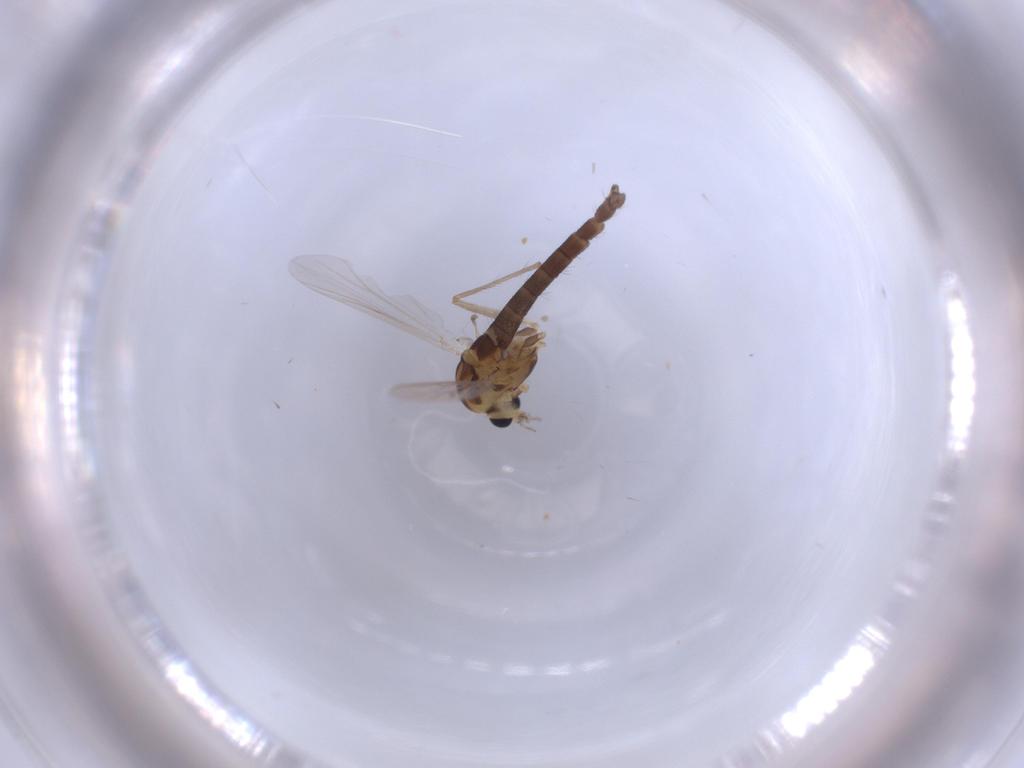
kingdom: Animalia
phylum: Arthropoda
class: Insecta
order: Diptera
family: Chironomidae
